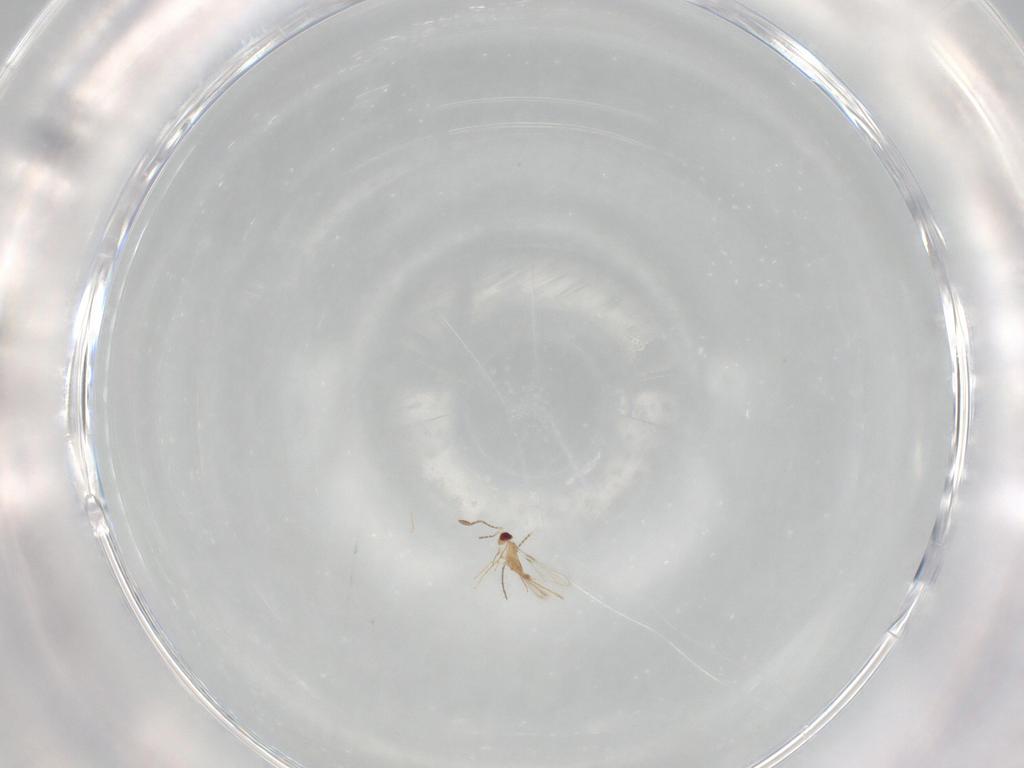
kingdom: Animalia
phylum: Arthropoda
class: Insecta
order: Hymenoptera
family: Mymaridae
